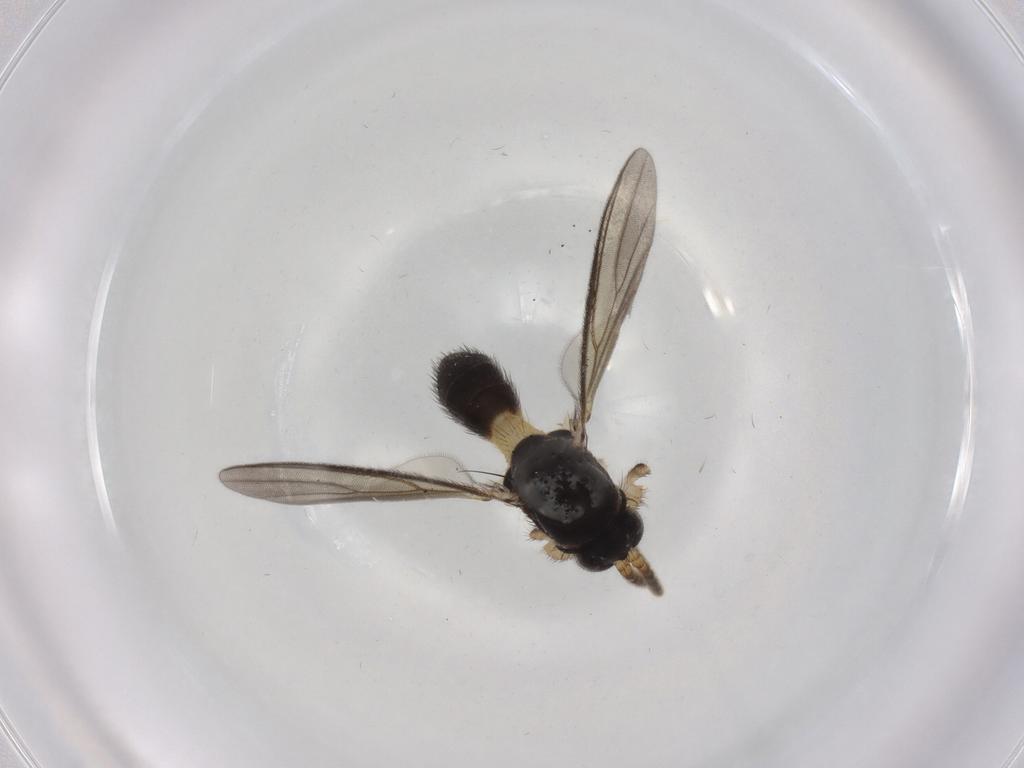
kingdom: Animalia
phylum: Arthropoda
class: Insecta
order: Diptera
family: Mycetophilidae
